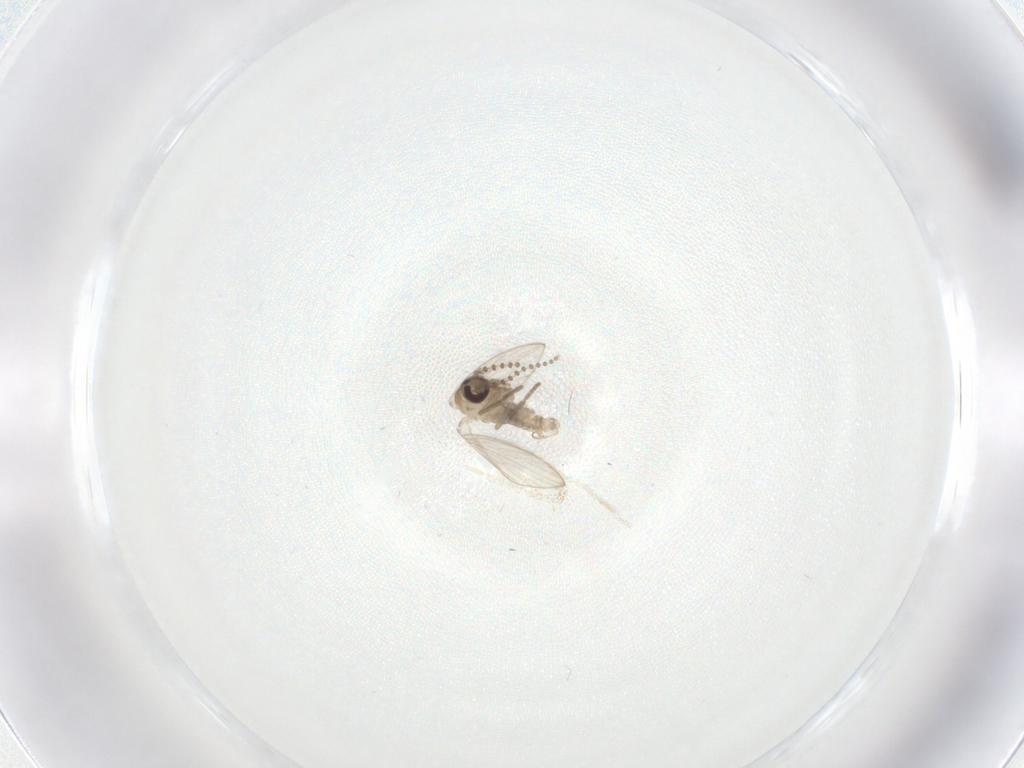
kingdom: Animalia
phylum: Arthropoda
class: Insecta
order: Diptera
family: Psychodidae
